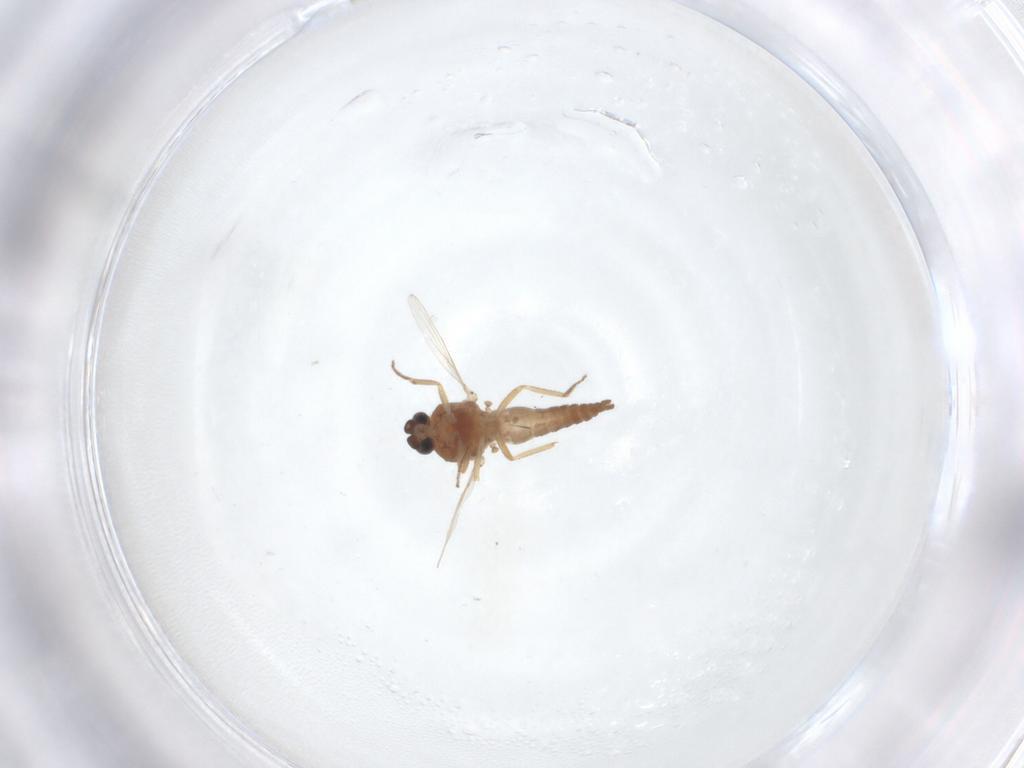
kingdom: Animalia
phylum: Arthropoda
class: Insecta
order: Diptera
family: Ceratopogonidae
